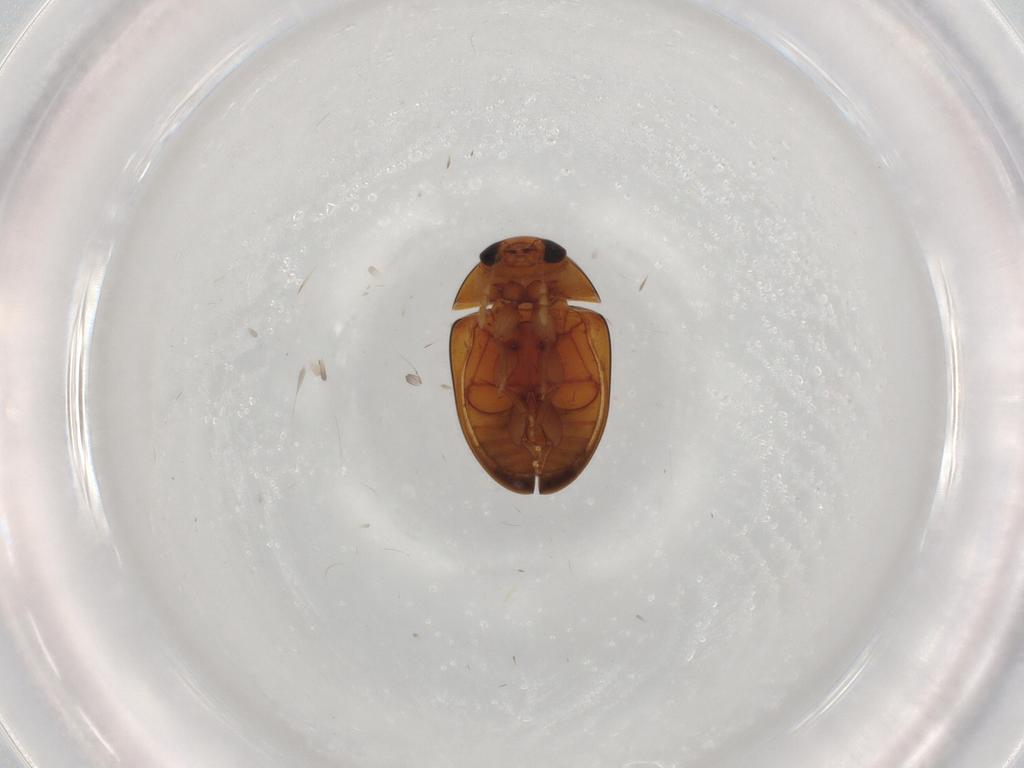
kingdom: Animalia
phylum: Arthropoda
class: Insecta
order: Coleoptera
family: Phalacridae
